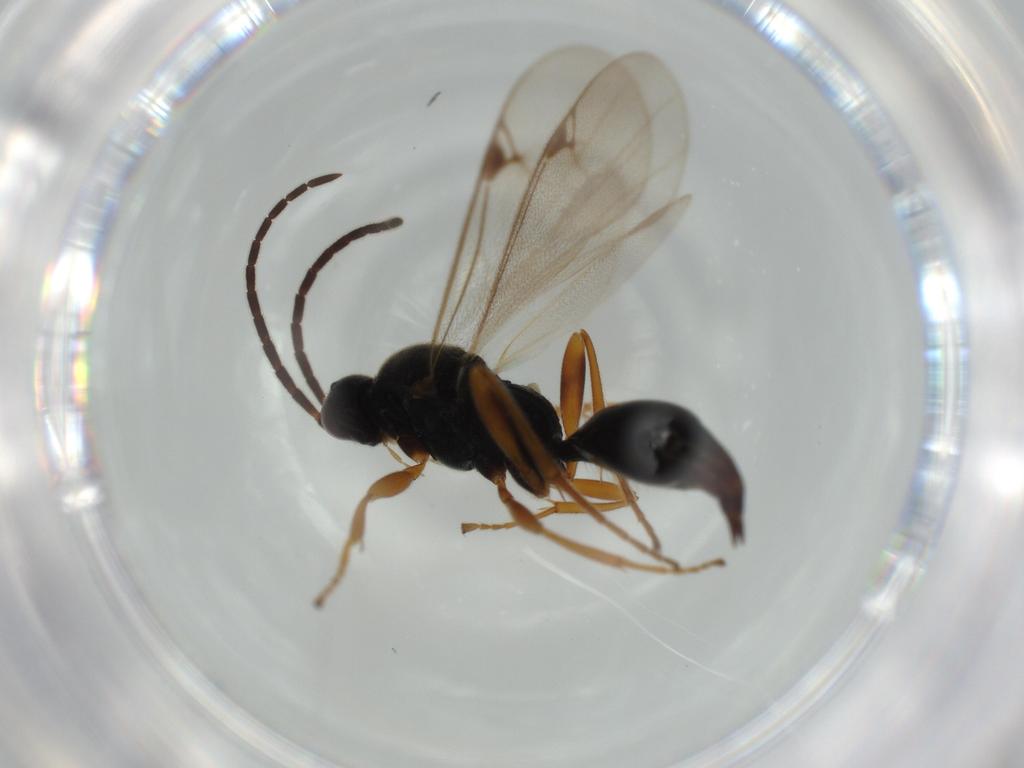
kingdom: Animalia
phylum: Arthropoda
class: Insecta
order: Hymenoptera
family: Proctotrupidae
